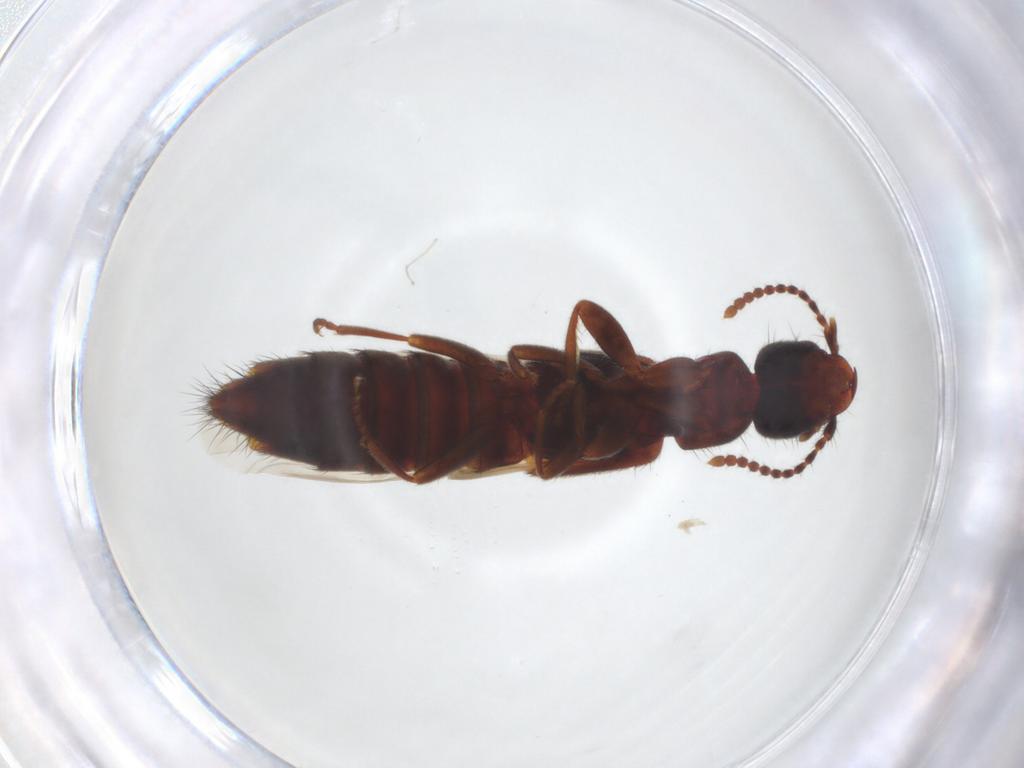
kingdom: Animalia
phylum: Arthropoda
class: Insecta
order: Coleoptera
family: Staphylinidae
